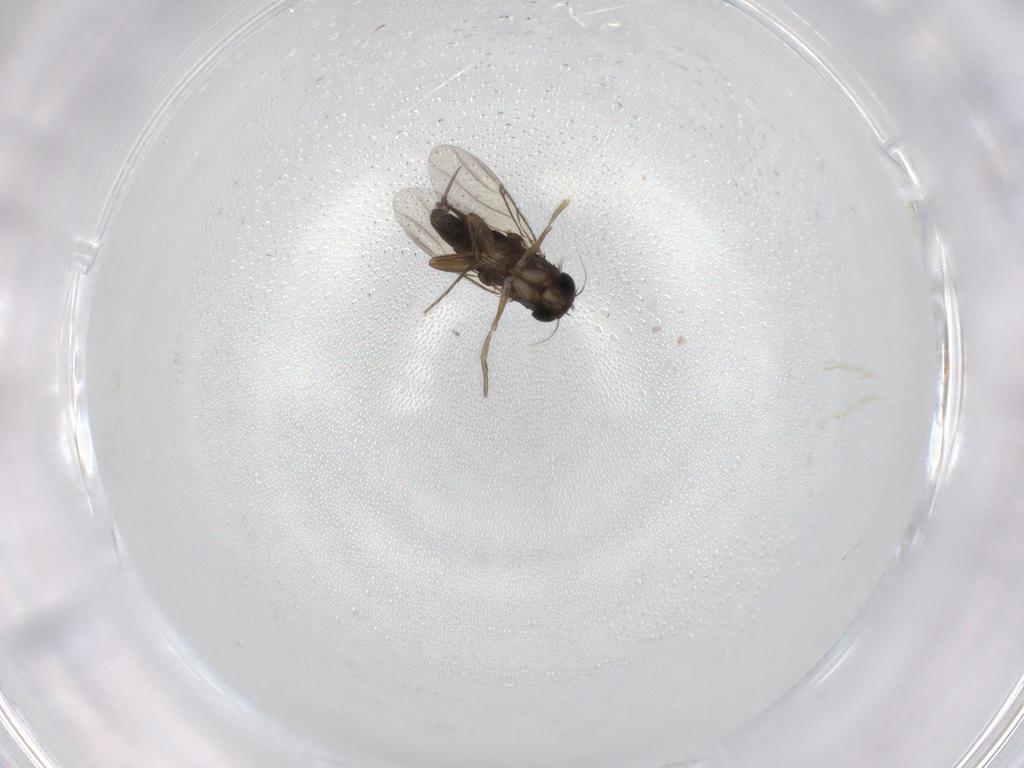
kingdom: Animalia
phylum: Arthropoda
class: Insecta
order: Diptera
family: Phoridae
